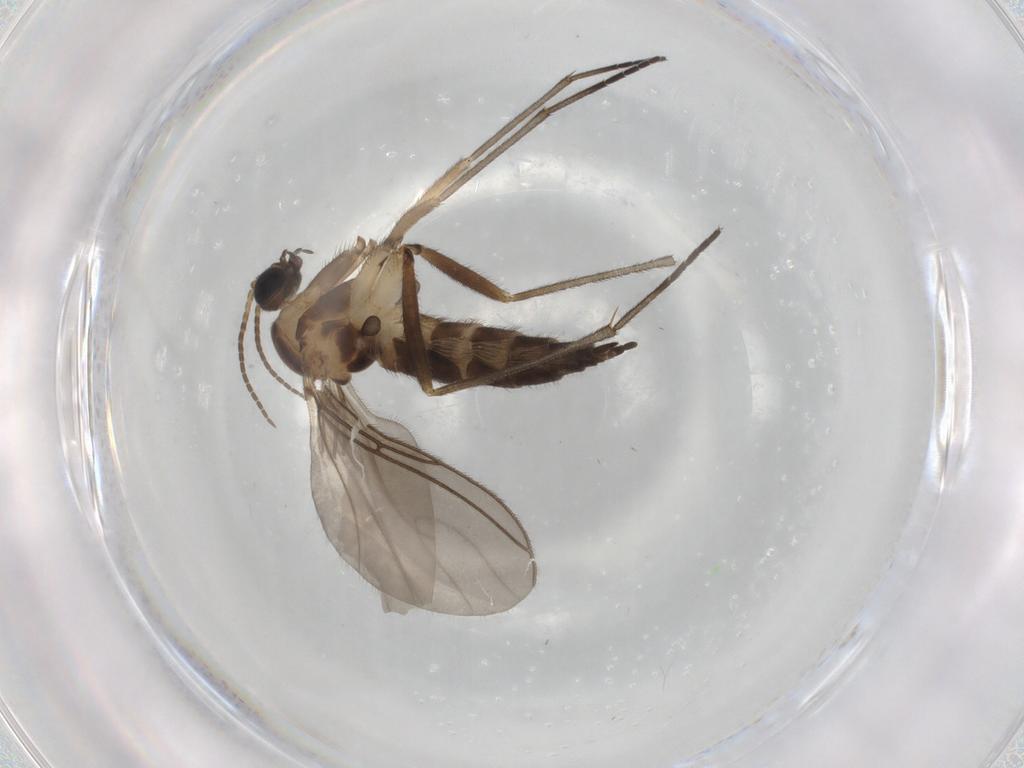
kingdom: Animalia
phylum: Arthropoda
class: Insecta
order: Diptera
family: Sciaridae
